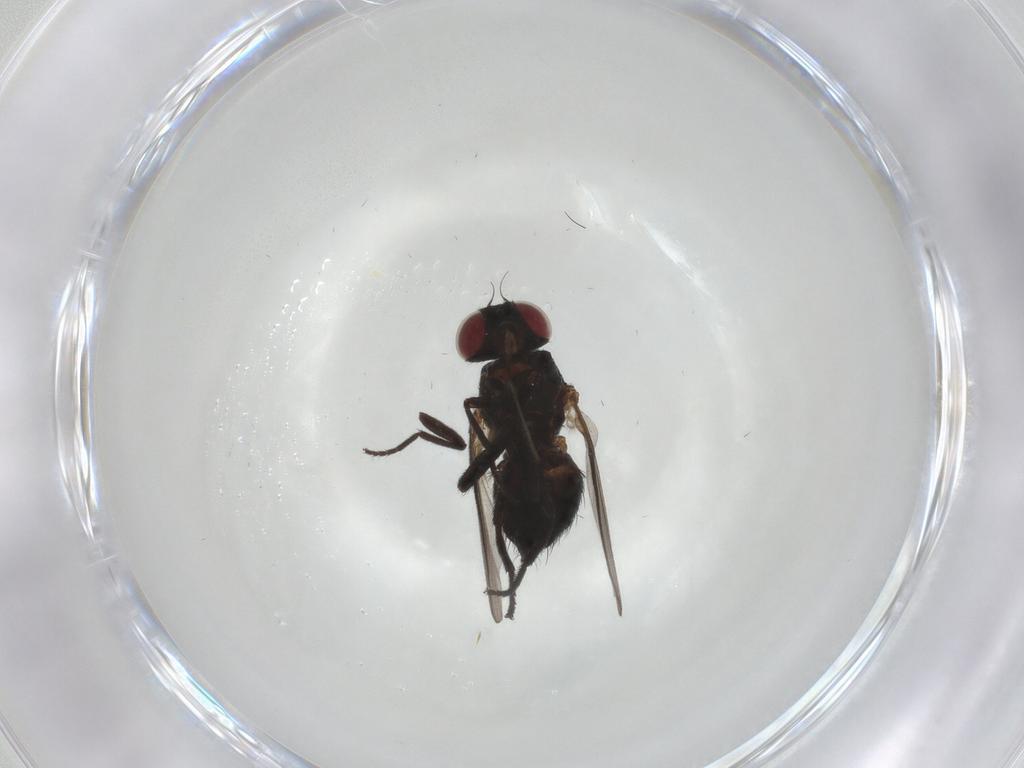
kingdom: Animalia
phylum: Arthropoda
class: Insecta
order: Diptera
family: Agromyzidae
